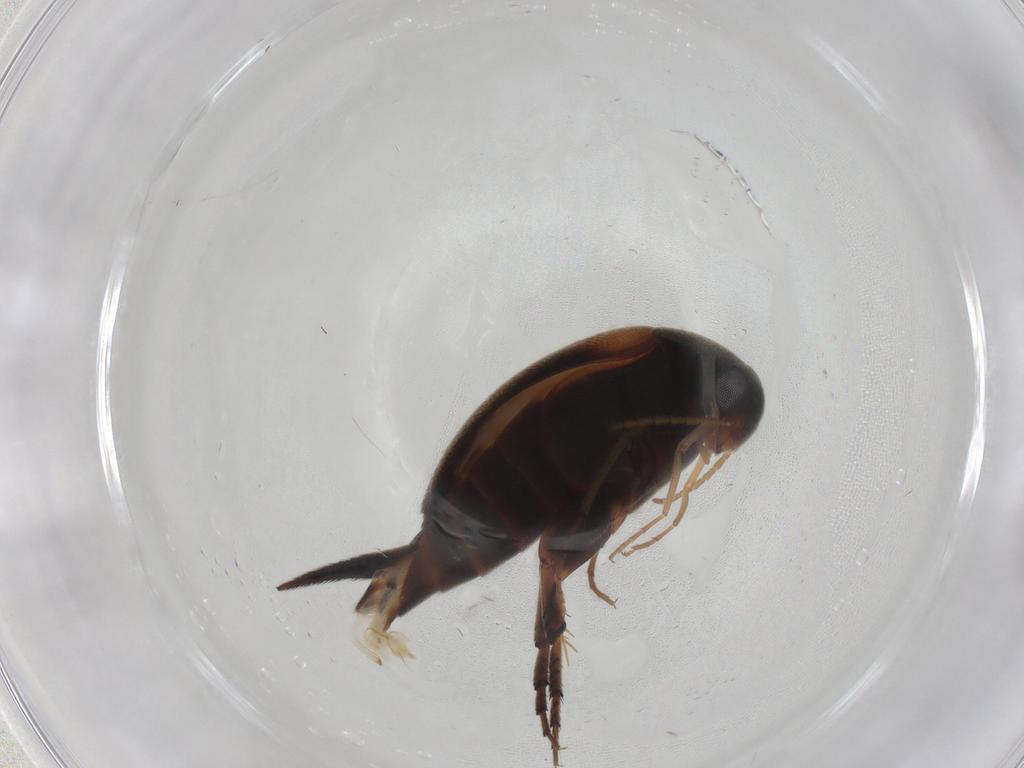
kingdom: Animalia
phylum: Arthropoda
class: Insecta
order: Coleoptera
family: Mordellidae
